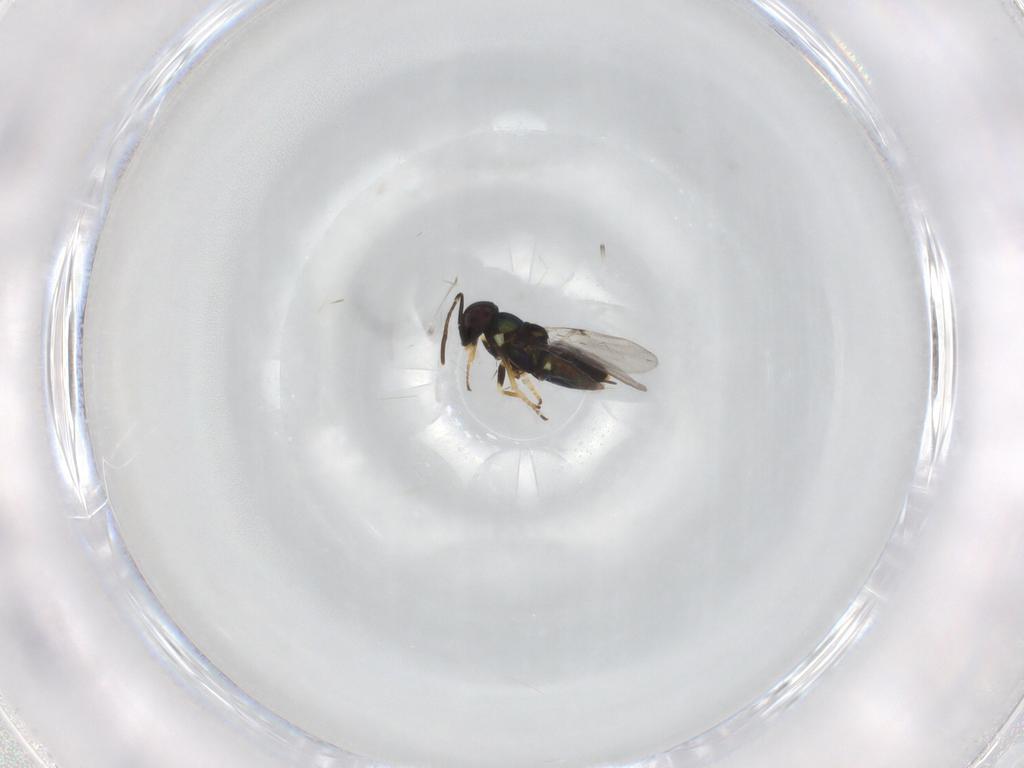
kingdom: Animalia
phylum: Arthropoda
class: Insecta
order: Hymenoptera
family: Encyrtidae
